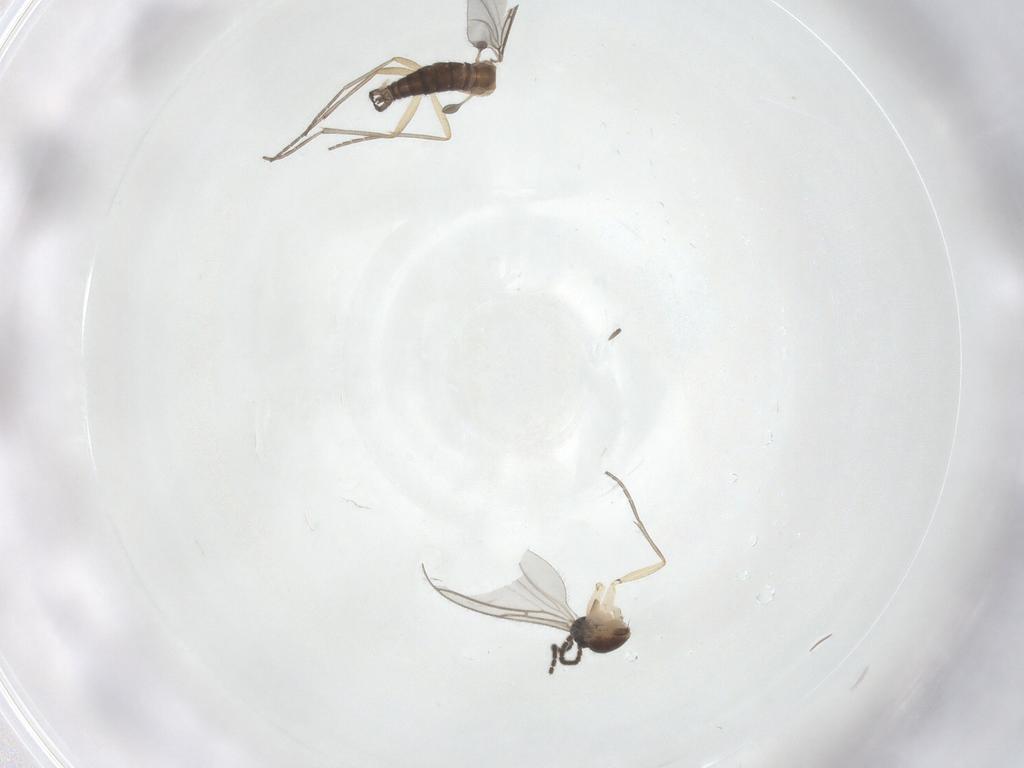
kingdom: Animalia
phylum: Arthropoda
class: Insecta
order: Diptera
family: Sciaridae
